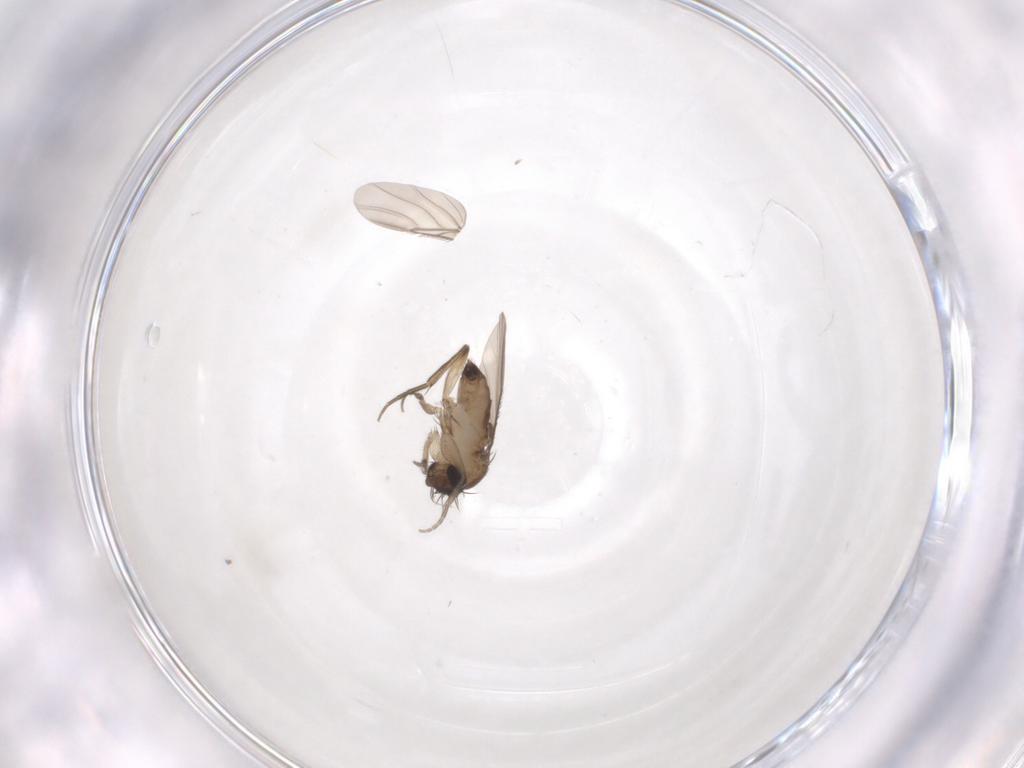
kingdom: Animalia
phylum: Arthropoda
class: Insecta
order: Diptera
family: Phoridae
